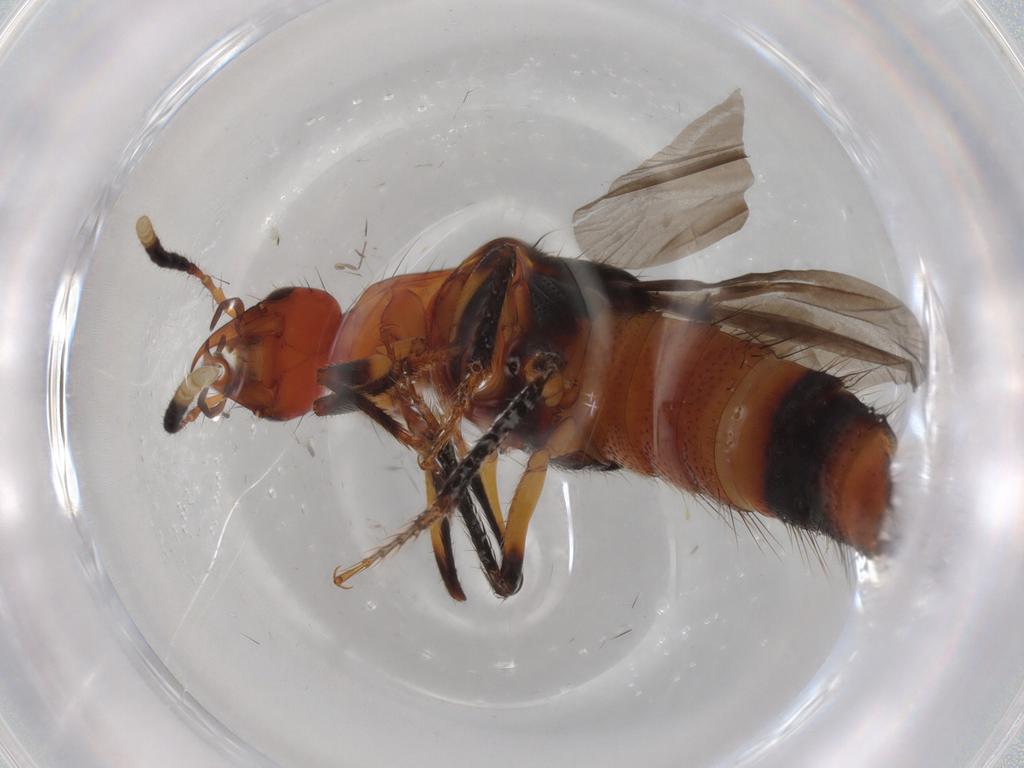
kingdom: Animalia
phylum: Arthropoda
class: Insecta
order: Coleoptera
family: Staphylinidae
